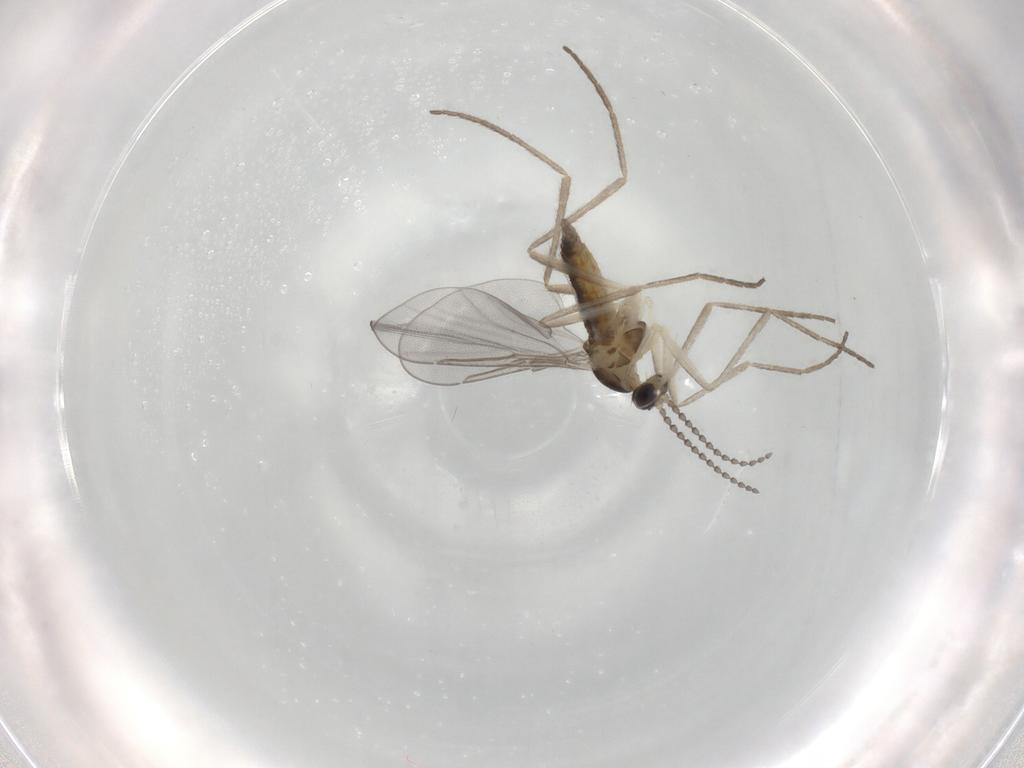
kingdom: Animalia
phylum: Arthropoda
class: Insecta
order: Diptera
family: Cecidomyiidae
